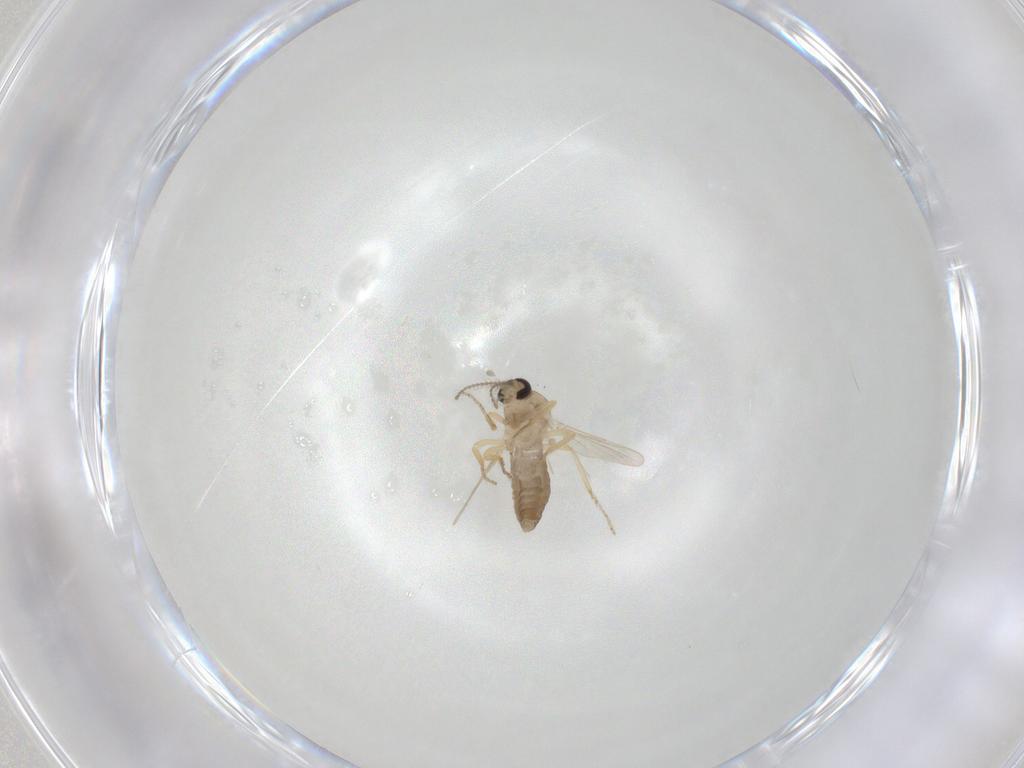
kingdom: Animalia
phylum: Arthropoda
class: Insecta
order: Diptera
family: Ceratopogonidae
